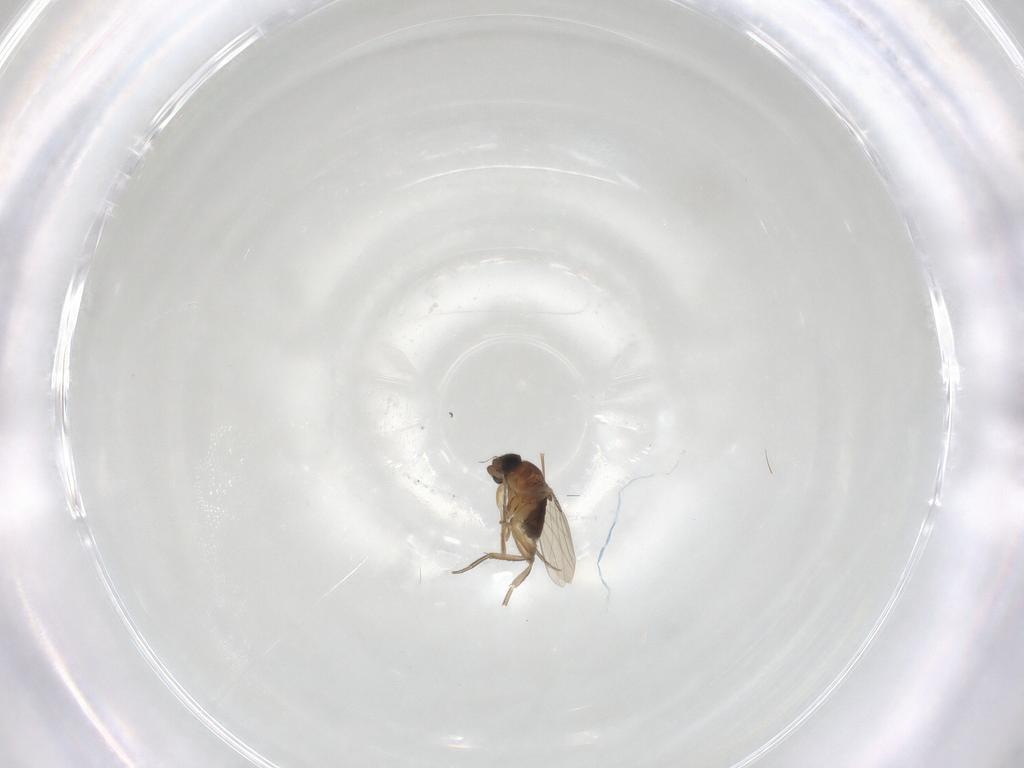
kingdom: Animalia
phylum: Arthropoda
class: Insecta
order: Diptera
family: Phoridae
